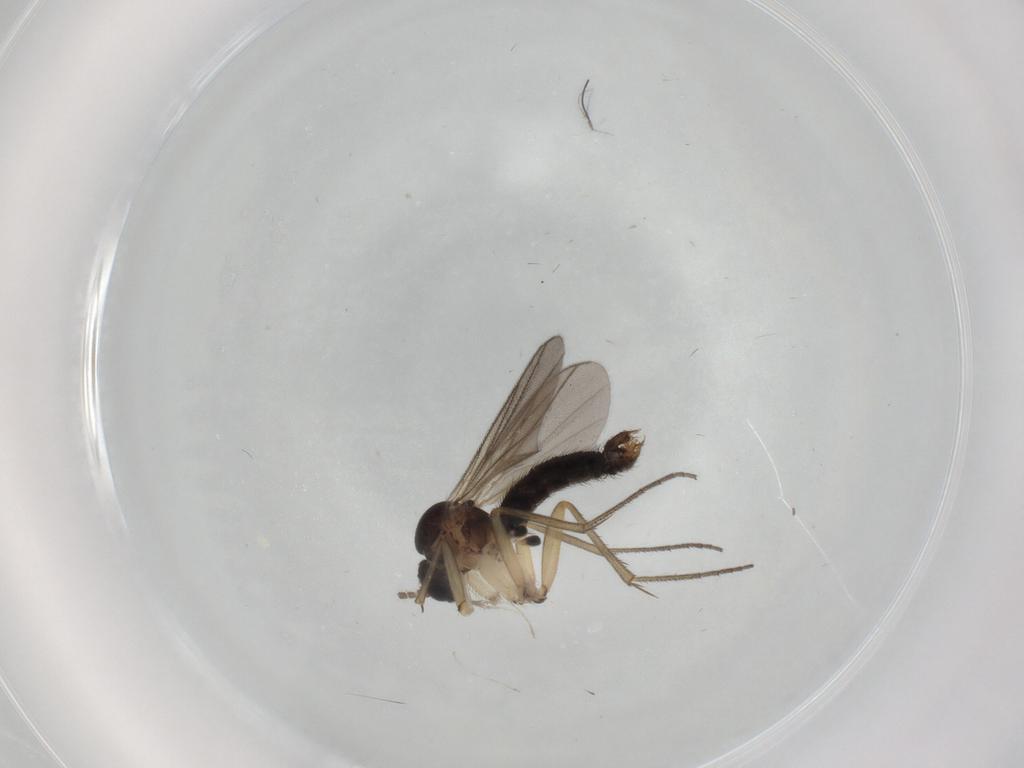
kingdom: Animalia
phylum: Arthropoda
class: Insecta
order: Diptera
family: Mycetophilidae
